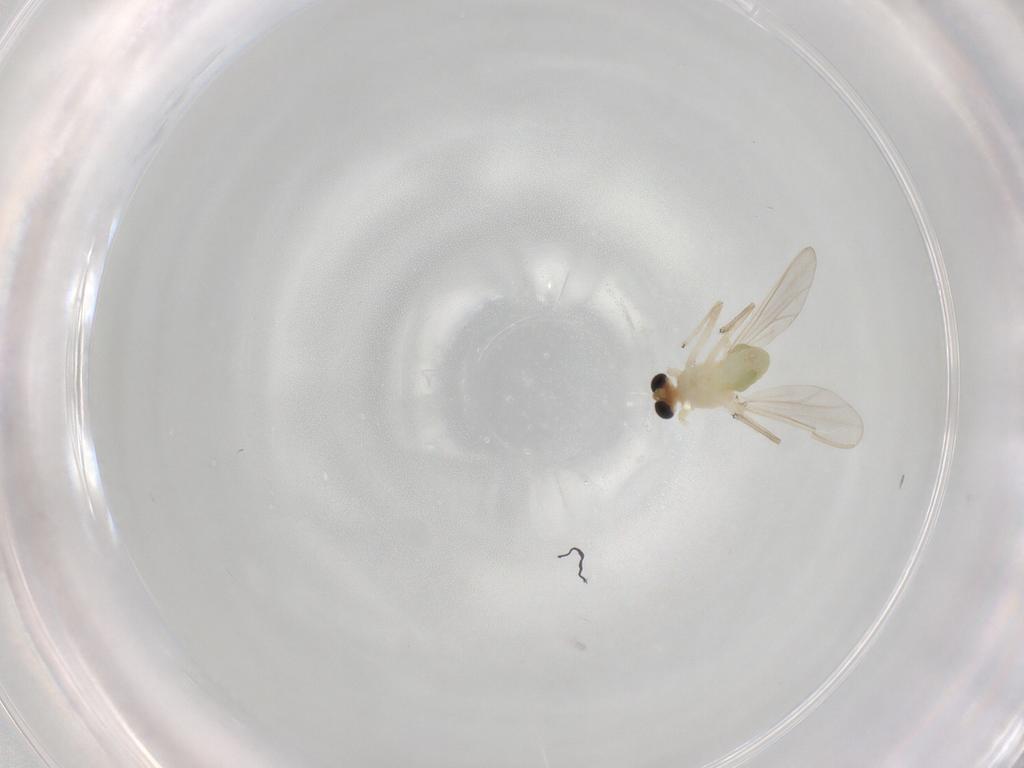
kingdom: Animalia
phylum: Arthropoda
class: Insecta
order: Diptera
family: Chironomidae
